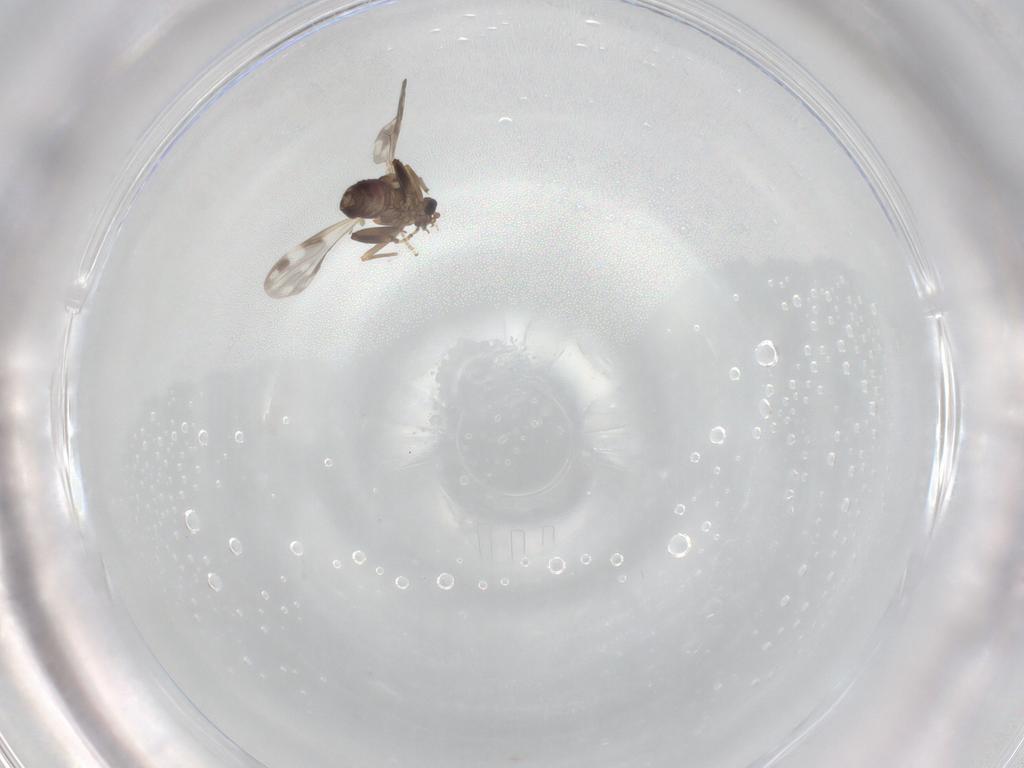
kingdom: Animalia
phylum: Arthropoda
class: Insecta
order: Diptera
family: Ceratopogonidae
